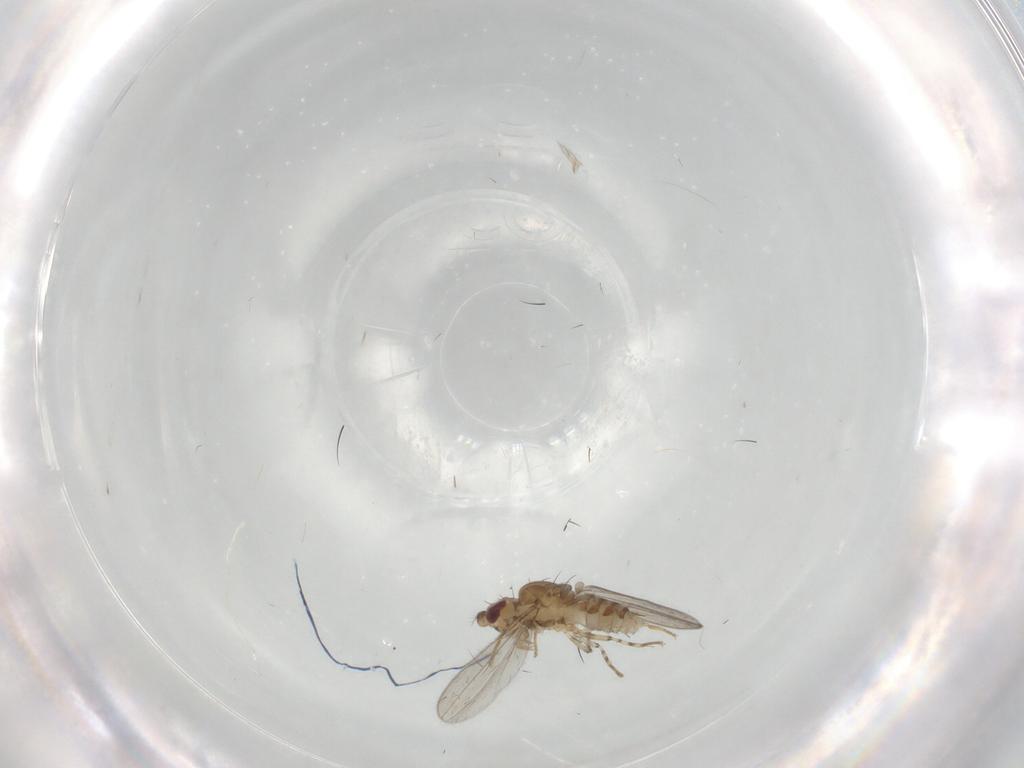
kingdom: Animalia
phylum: Arthropoda
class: Insecta
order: Diptera
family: Asteiidae
